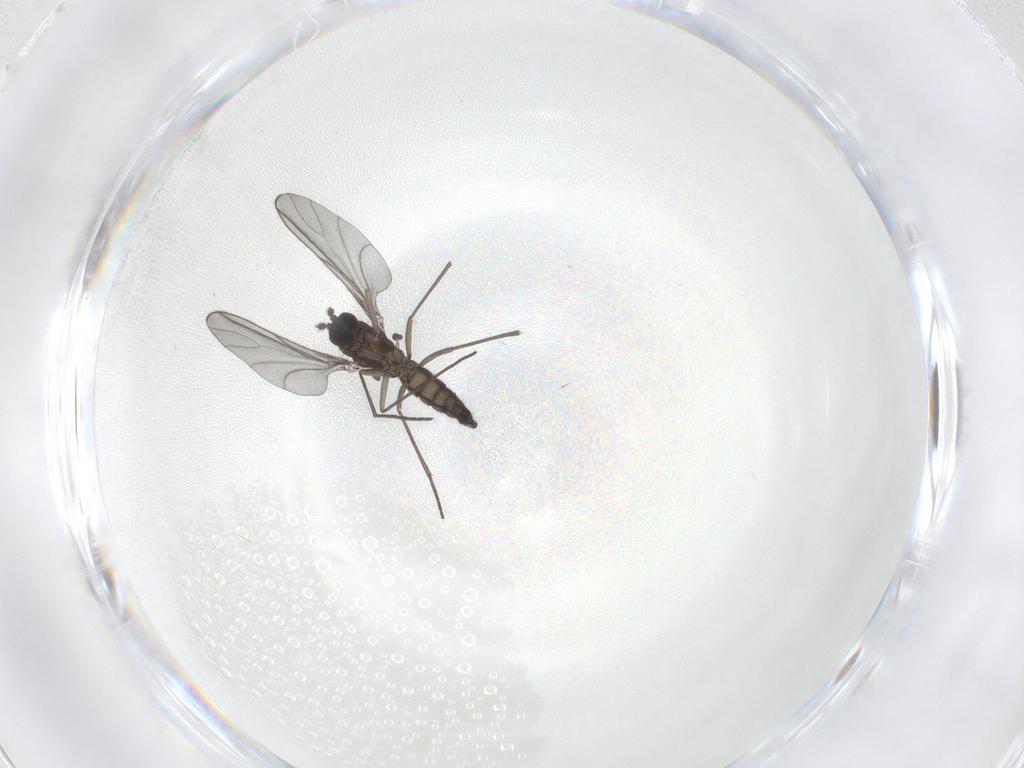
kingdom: Animalia
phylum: Arthropoda
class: Insecta
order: Diptera
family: Sciaridae
